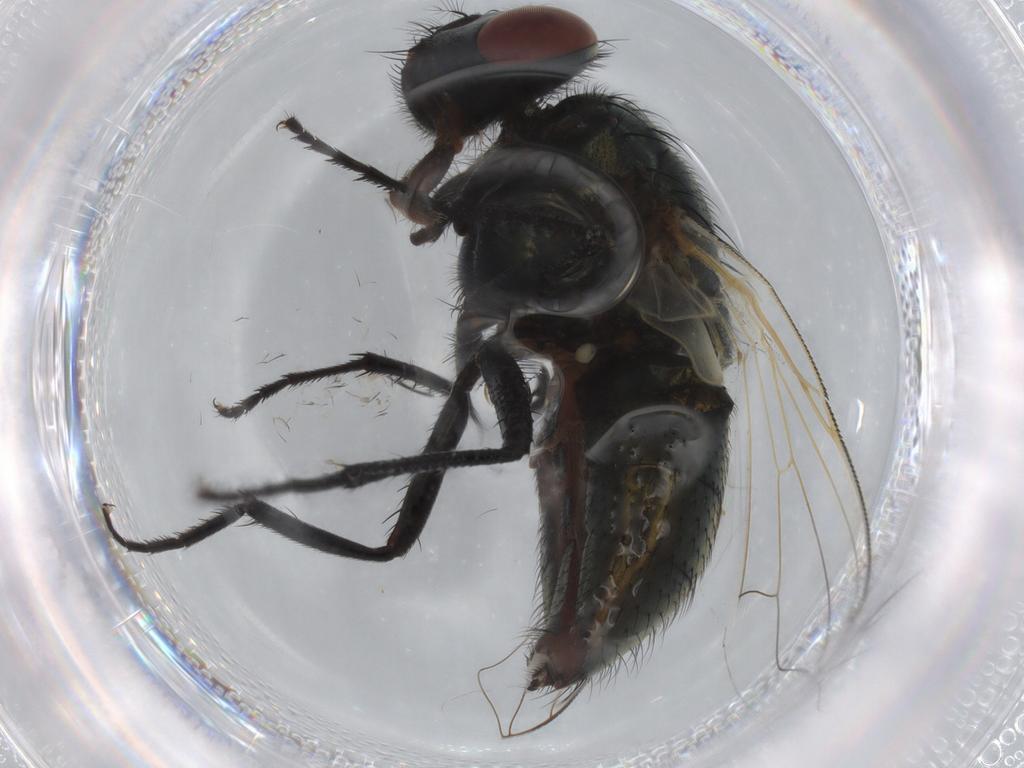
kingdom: Animalia
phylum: Arthropoda
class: Insecta
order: Diptera
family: Muscidae
